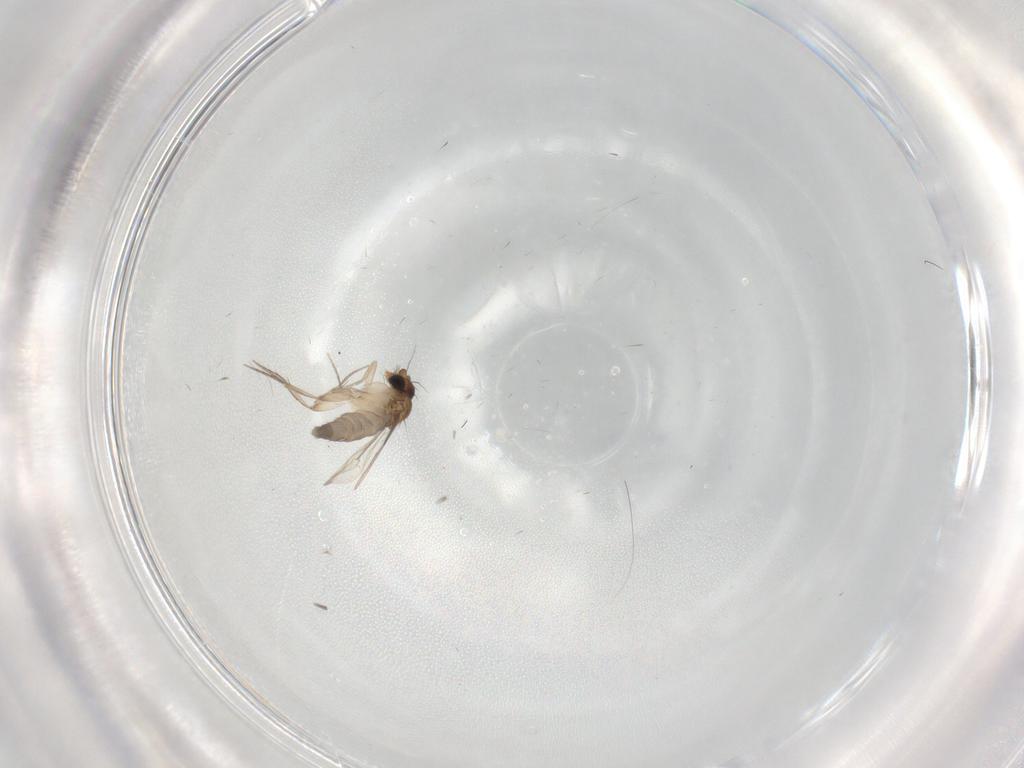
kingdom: Animalia
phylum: Arthropoda
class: Insecta
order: Diptera
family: Phoridae
